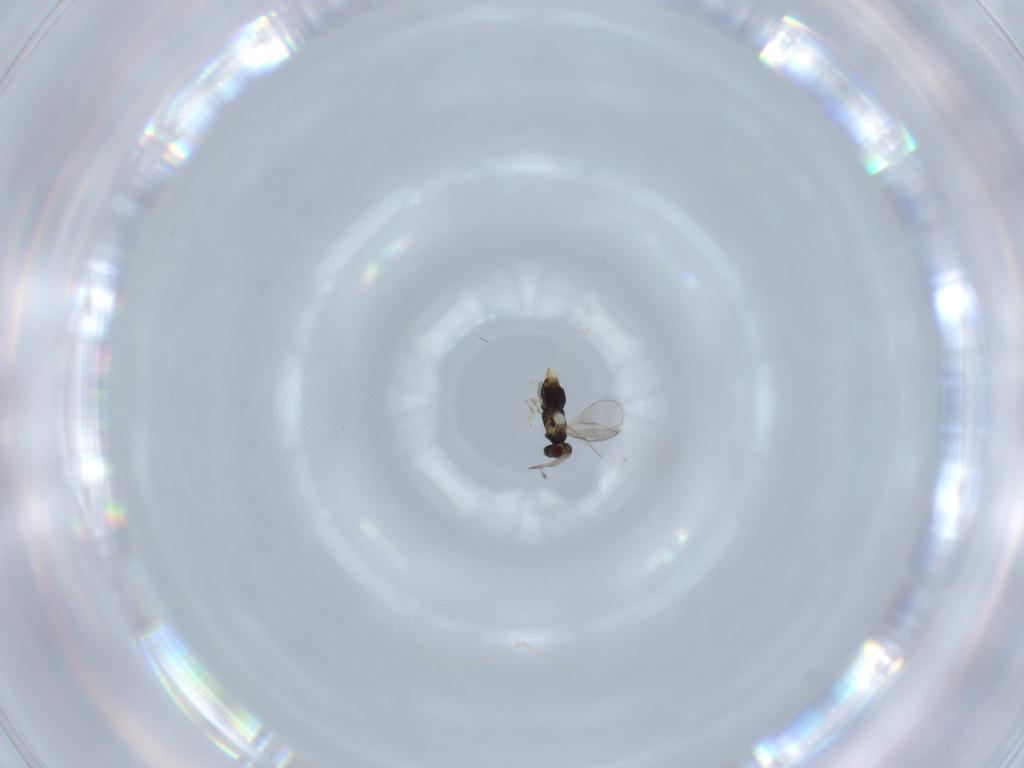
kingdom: Animalia
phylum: Arthropoda
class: Insecta
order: Hymenoptera
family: Aphelinidae
